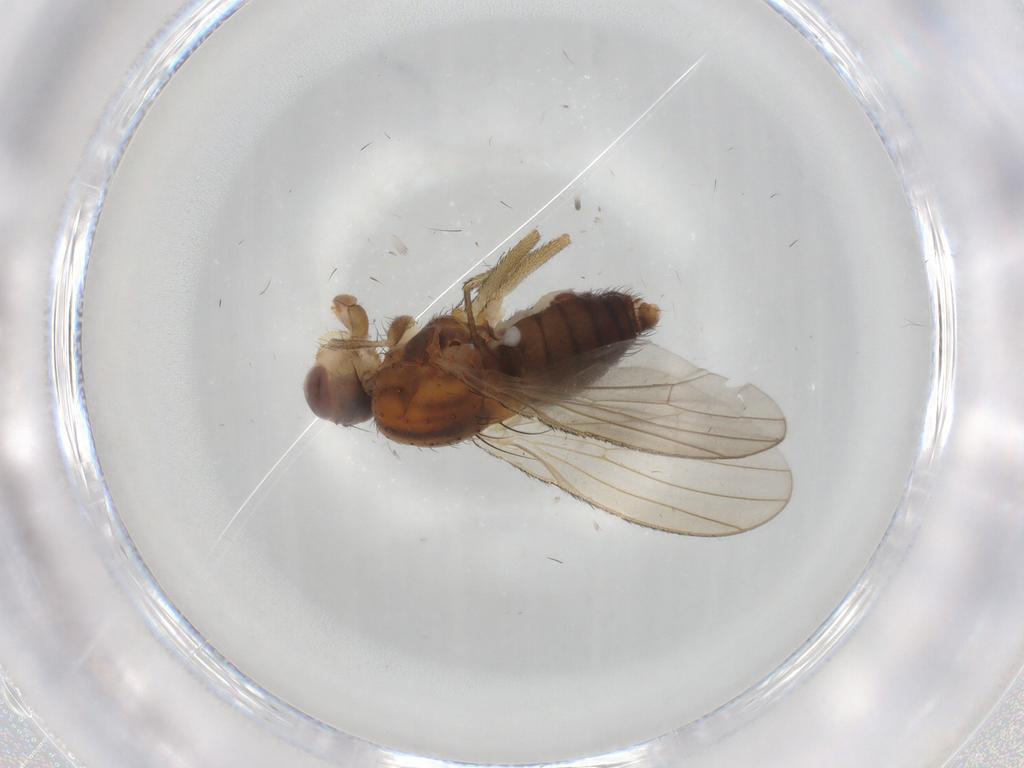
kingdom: Animalia
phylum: Arthropoda
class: Insecta
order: Diptera
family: Heleomyzidae
